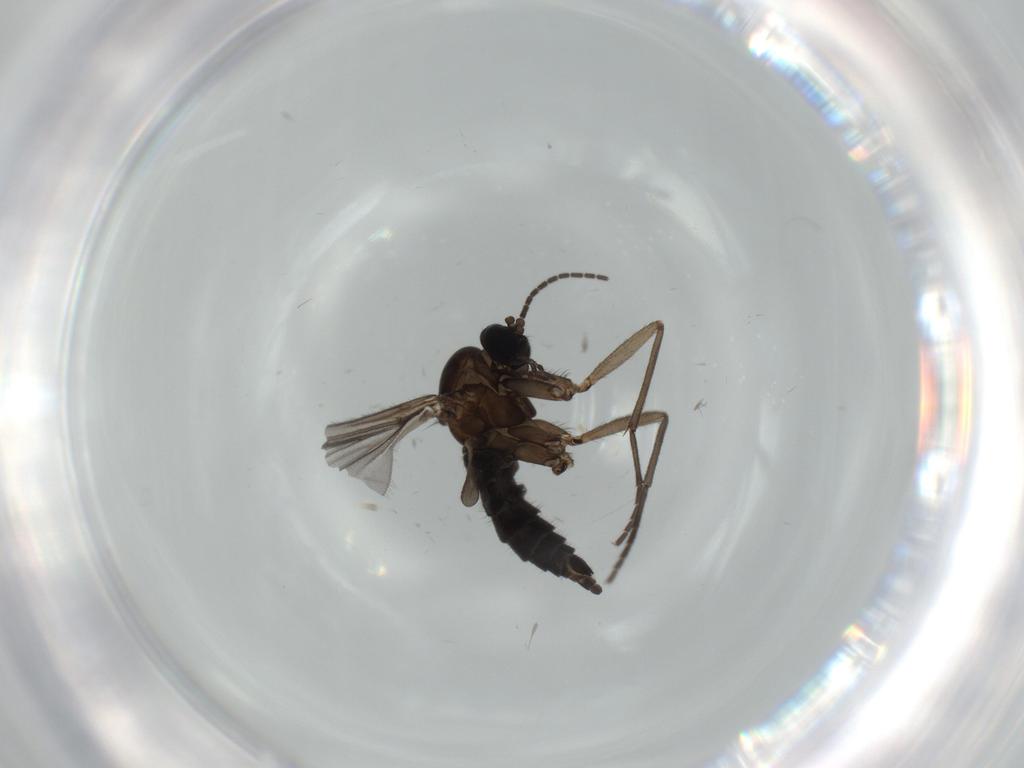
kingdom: Animalia
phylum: Arthropoda
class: Insecta
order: Diptera
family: Sciaridae
